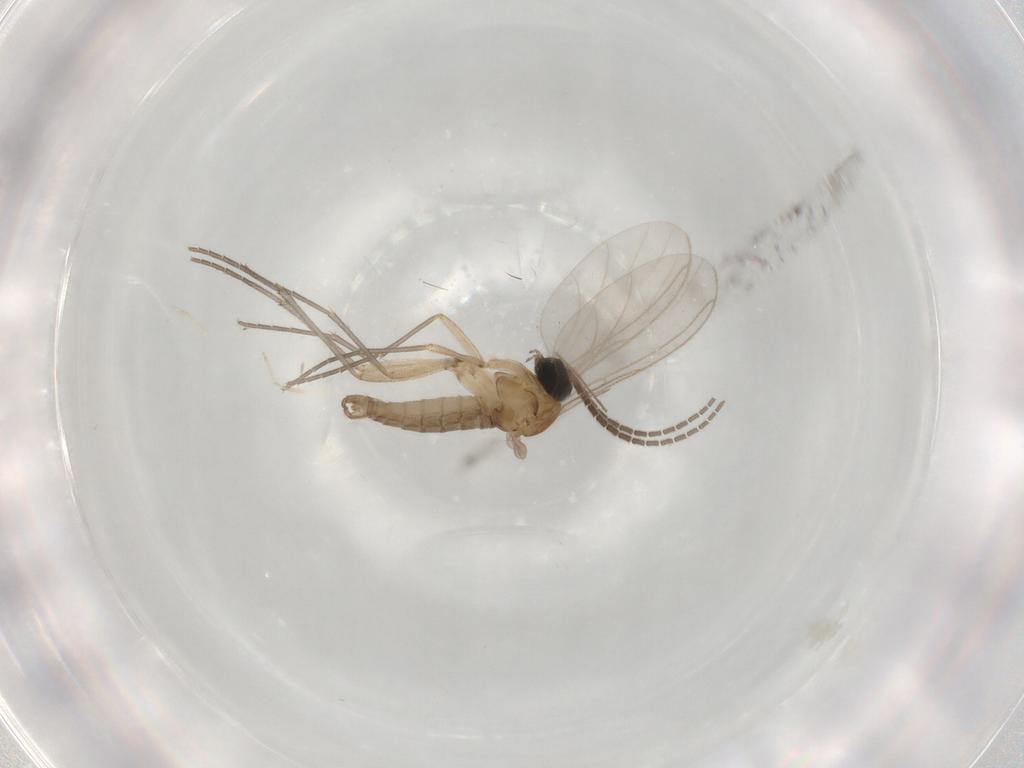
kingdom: Animalia
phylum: Arthropoda
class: Insecta
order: Diptera
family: Sciaridae
